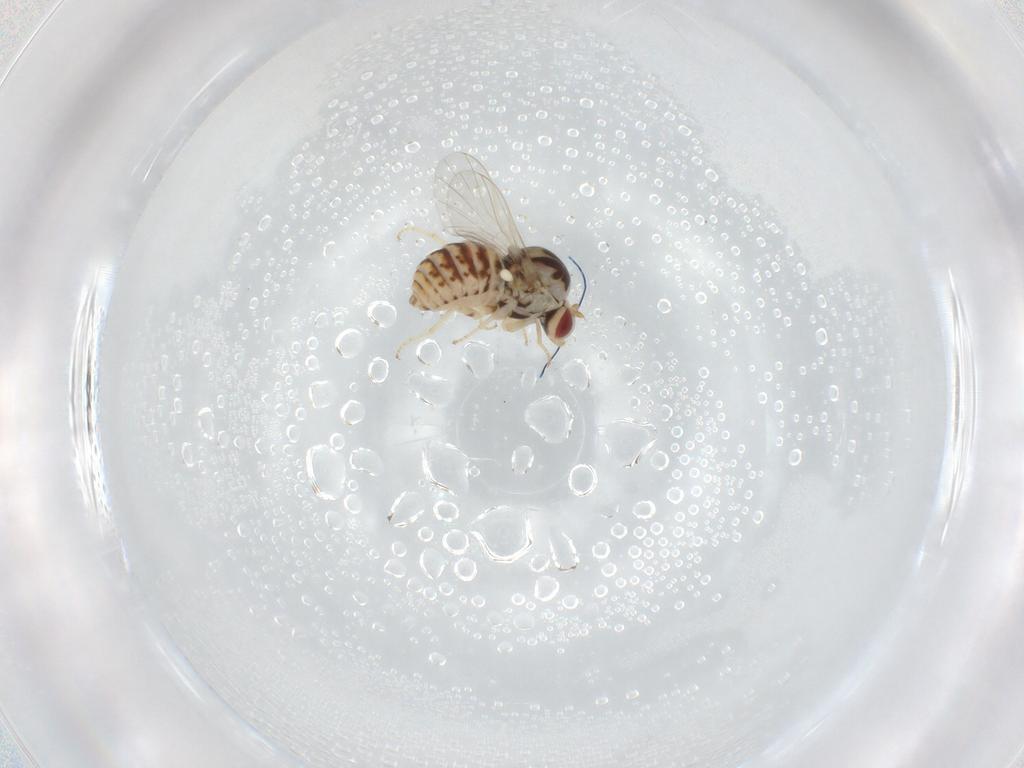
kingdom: Animalia
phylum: Arthropoda
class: Insecta
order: Diptera
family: Bombyliidae
